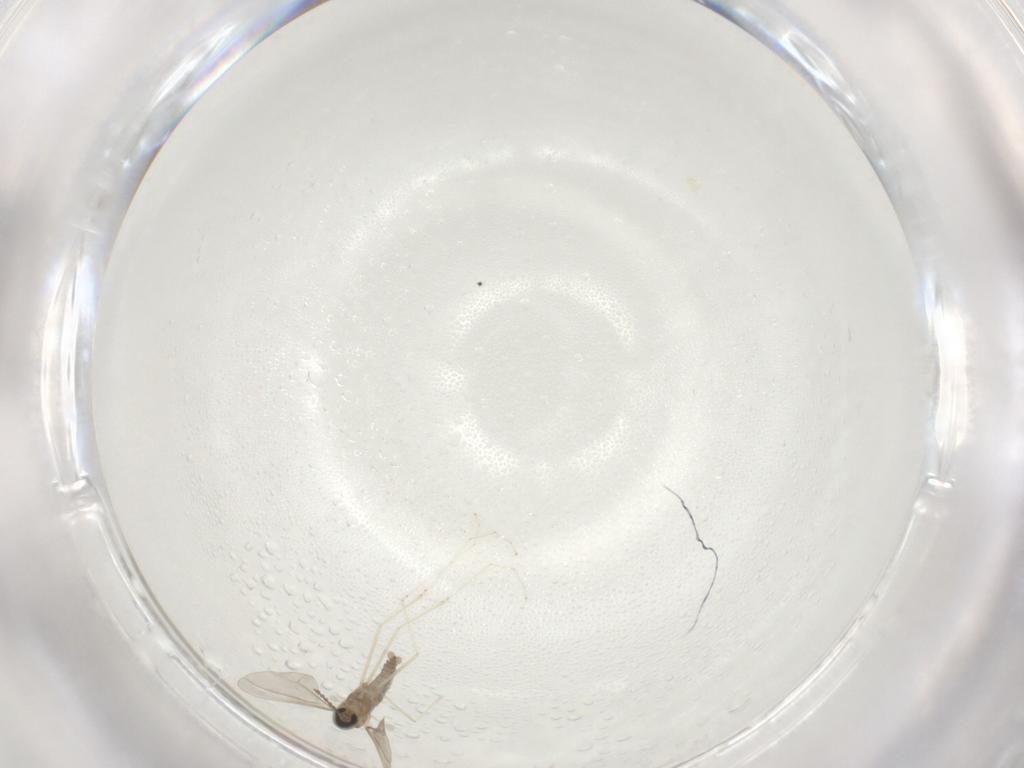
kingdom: Animalia
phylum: Arthropoda
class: Insecta
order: Diptera
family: Cecidomyiidae
